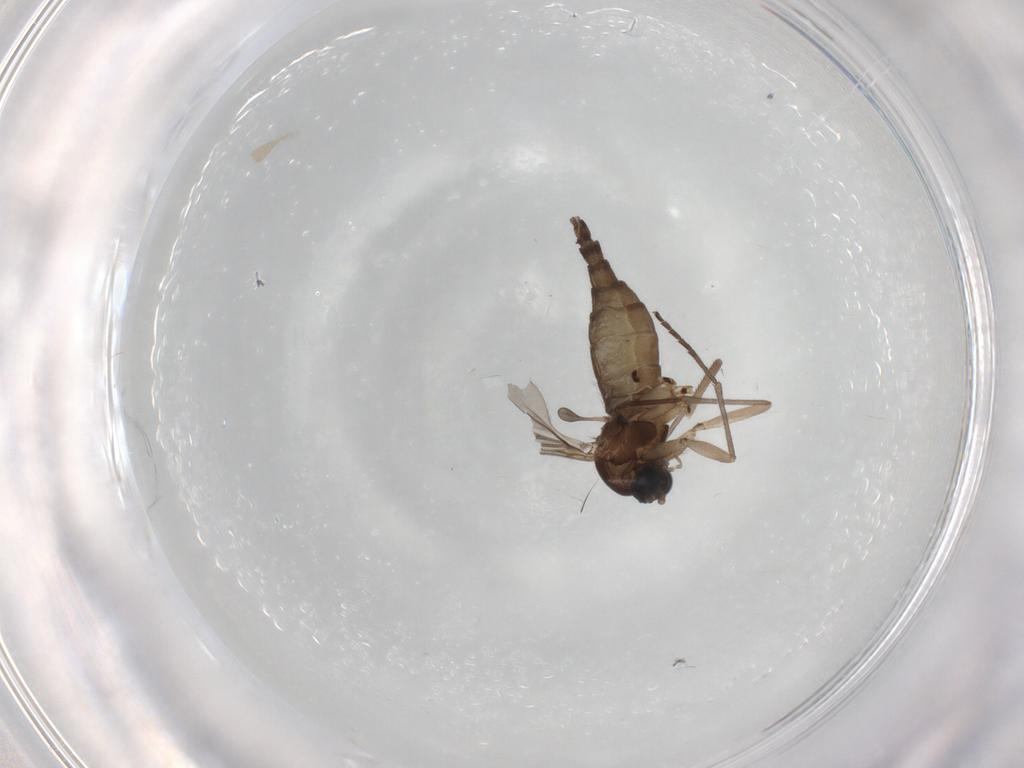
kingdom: Animalia
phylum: Arthropoda
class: Insecta
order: Diptera
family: Sciaridae
